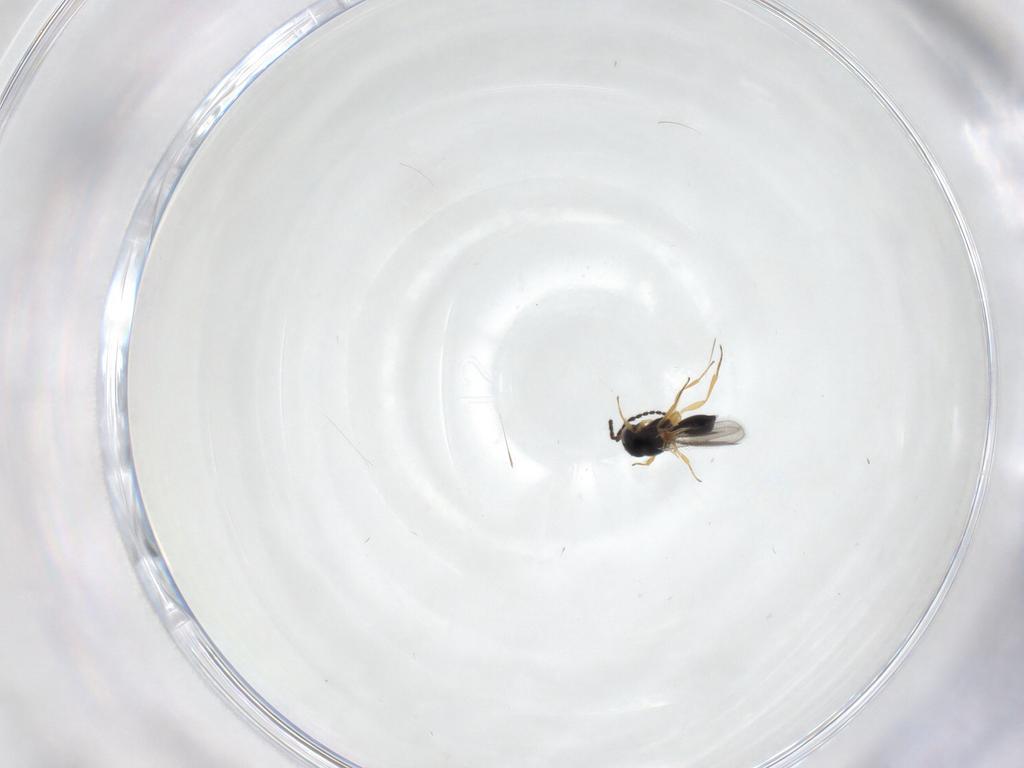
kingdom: Animalia
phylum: Arthropoda
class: Insecta
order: Hymenoptera
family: Scelionidae
